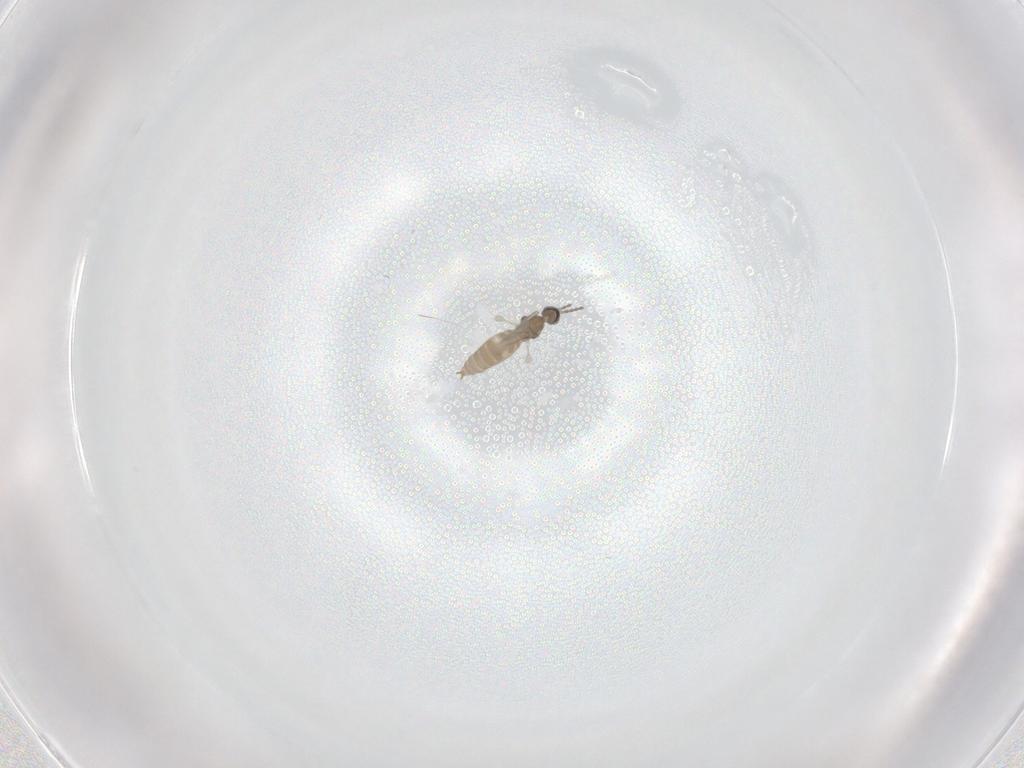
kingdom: Animalia
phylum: Arthropoda
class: Insecta
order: Diptera
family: Cecidomyiidae
